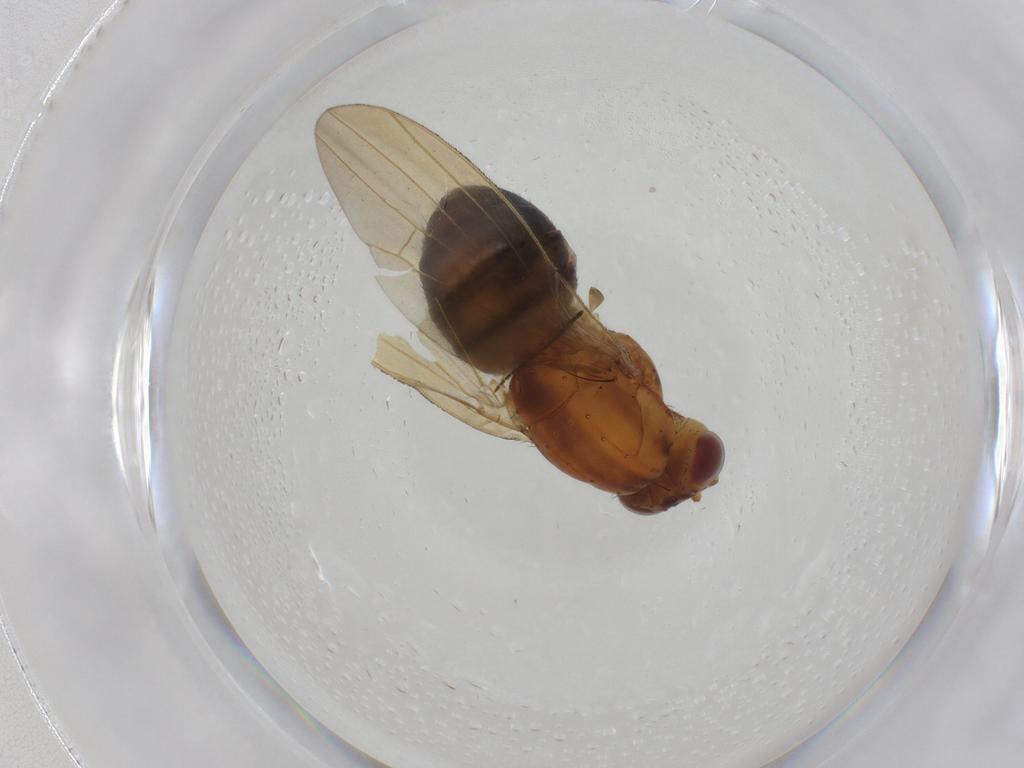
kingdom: Animalia
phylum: Arthropoda
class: Insecta
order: Diptera
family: Lauxaniidae
